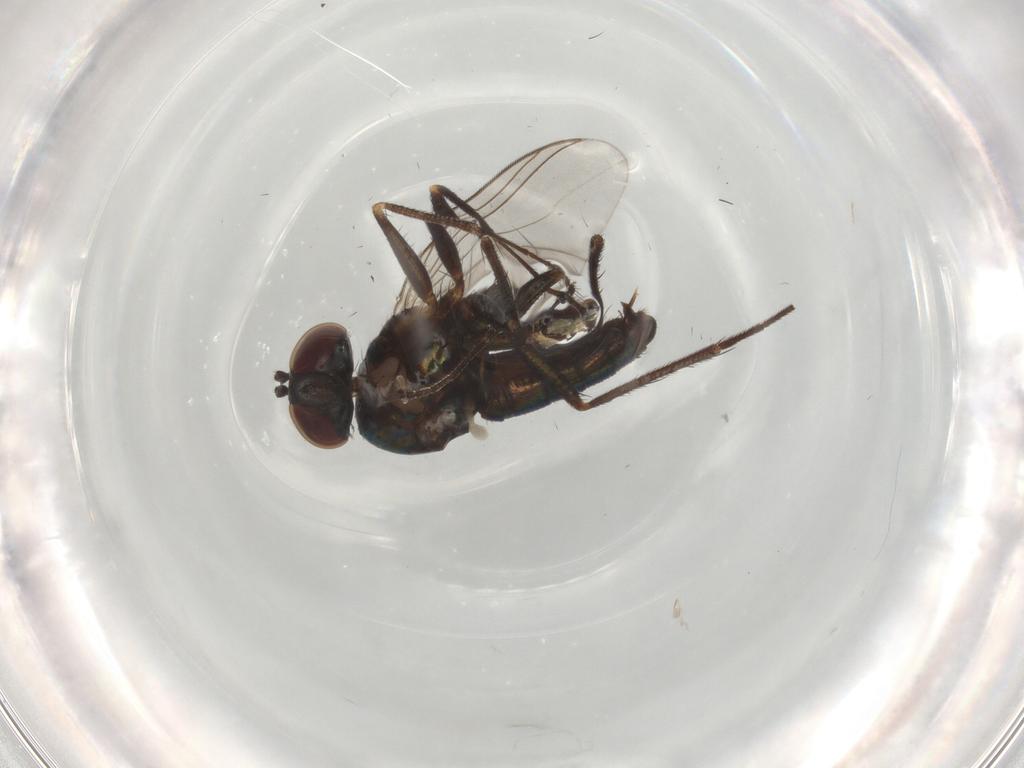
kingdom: Animalia
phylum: Arthropoda
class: Insecta
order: Diptera
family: Dolichopodidae
